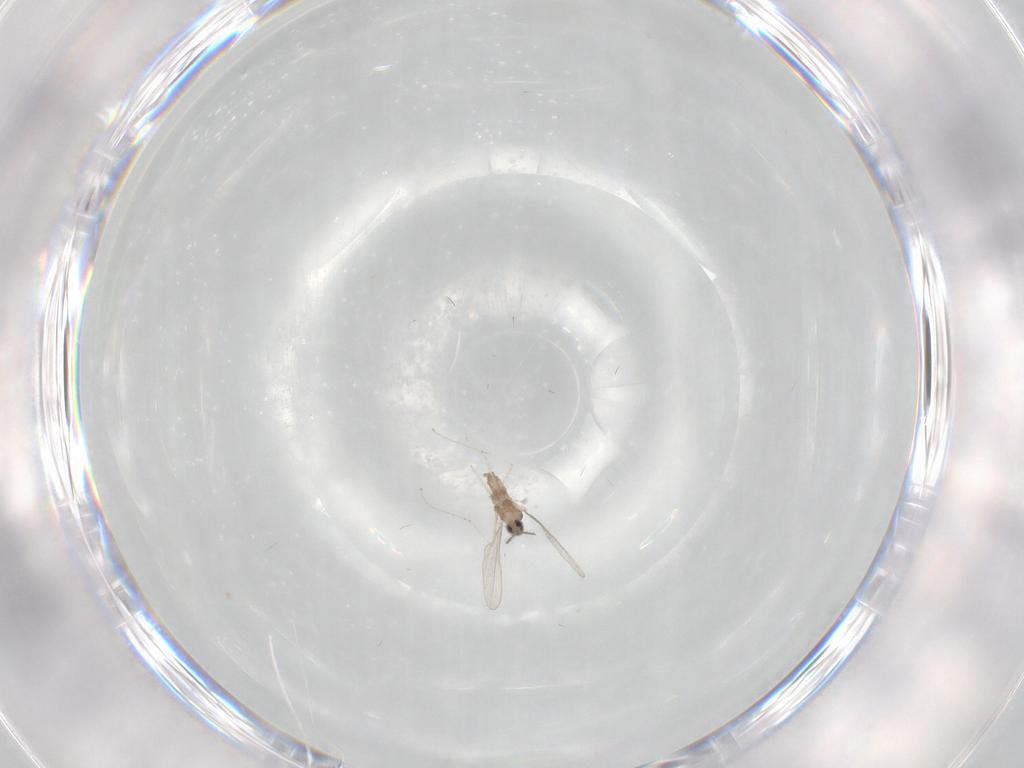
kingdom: Animalia
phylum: Arthropoda
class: Insecta
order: Diptera
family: Cecidomyiidae
